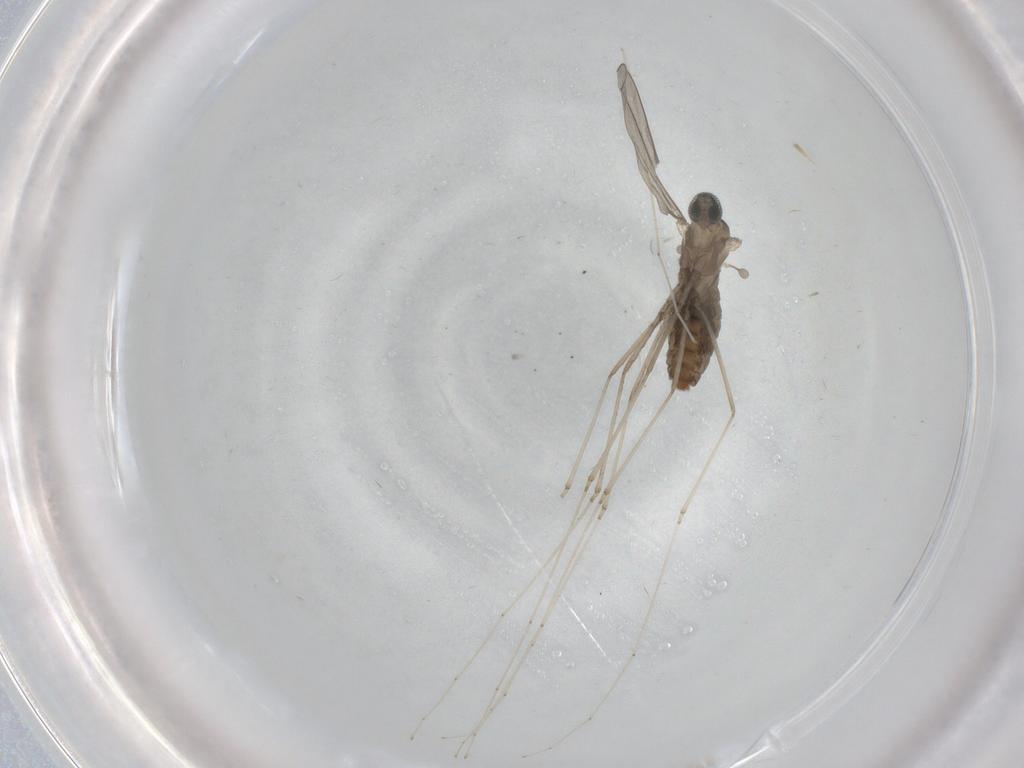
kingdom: Animalia
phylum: Arthropoda
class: Insecta
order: Diptera
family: Cecidomyiidae
